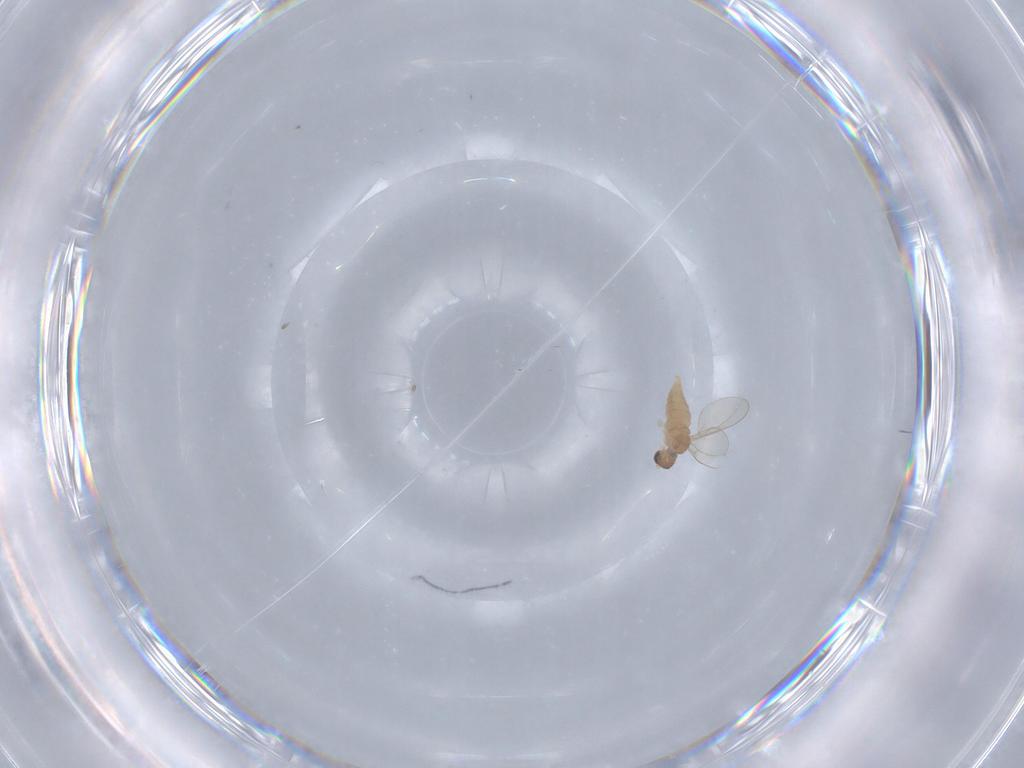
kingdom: Animalia
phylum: Arthropoda
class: Insecta
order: Diptera
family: Cecidomyiidae
